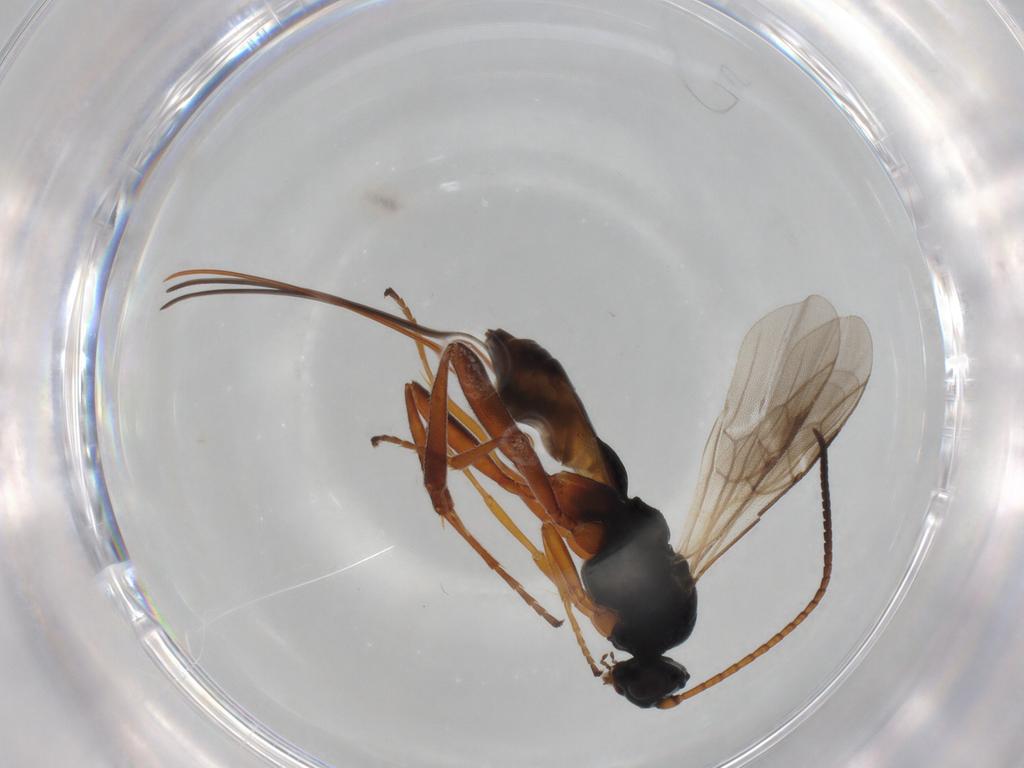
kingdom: Animalia
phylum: Arthropoda
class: Insecta
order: Hymenoptera
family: Braconidae
